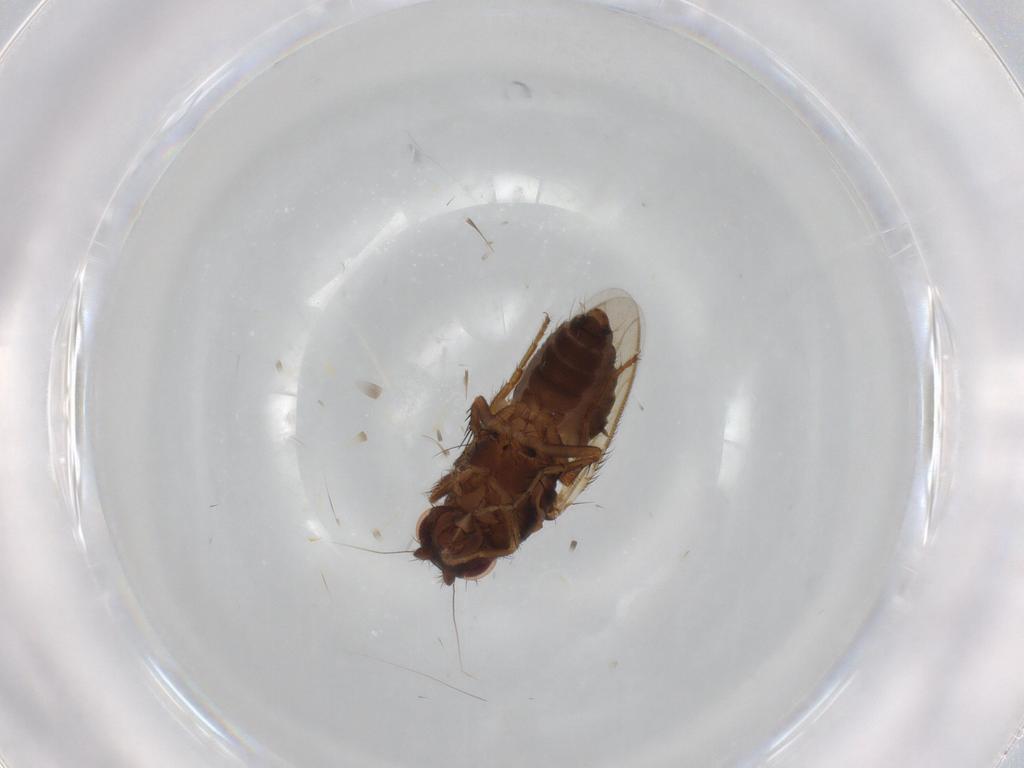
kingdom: Animalia
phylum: Arthropoda
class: Insecta
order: Diptera
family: Sphaeroceridae
